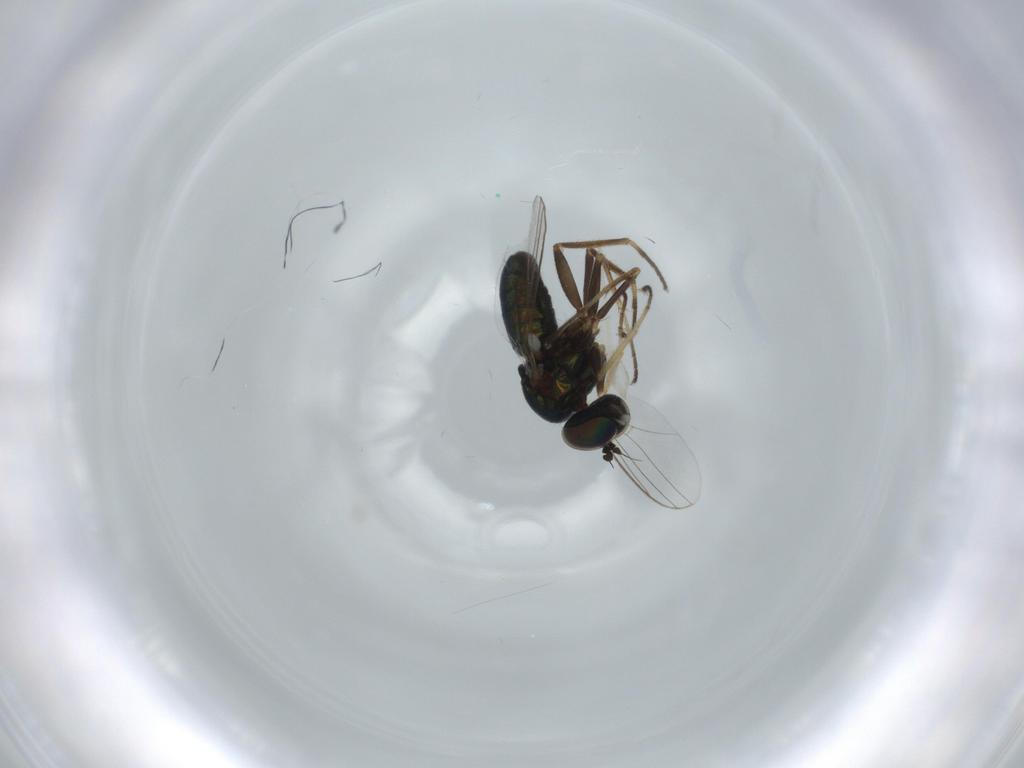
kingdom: Animalia
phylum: Arthropoda
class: Insecta
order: Diptera
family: Chironomidae
